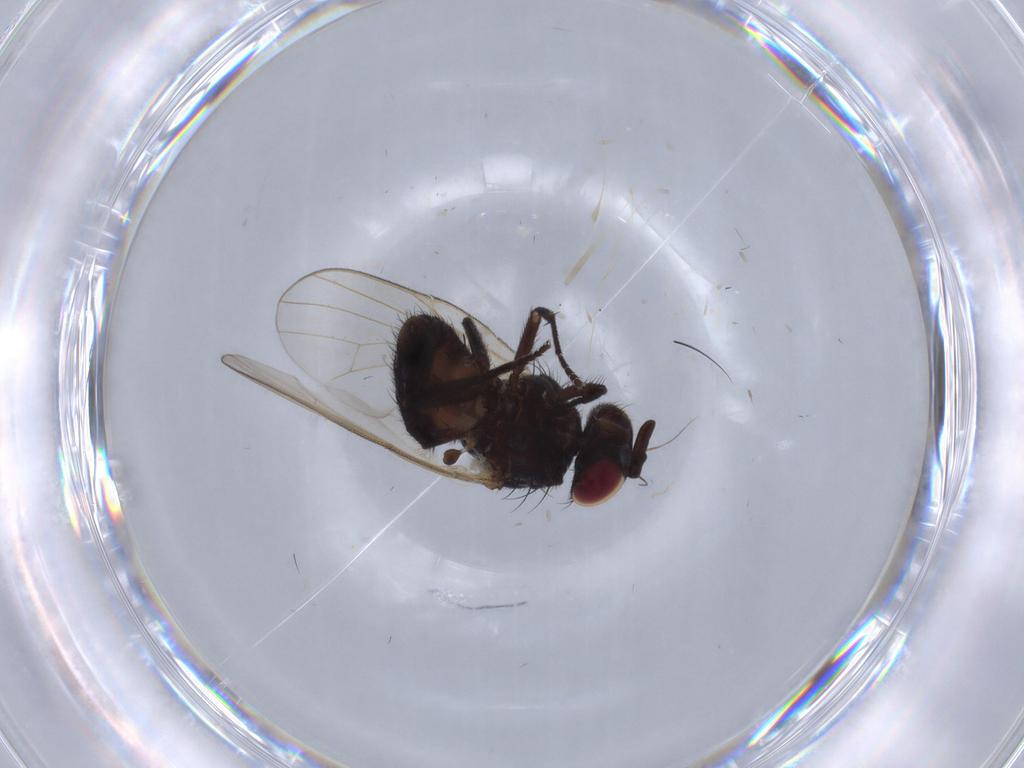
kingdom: Animalia
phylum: Arthropoda
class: Insecta
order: Diptera
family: Chloropidae
